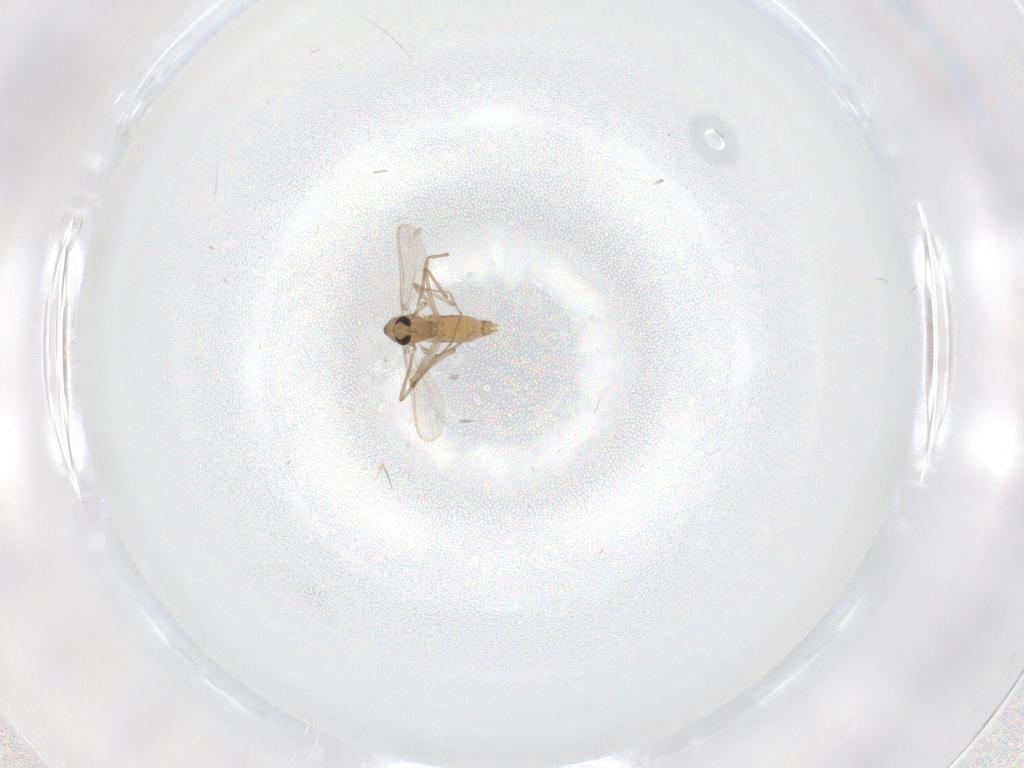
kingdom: Animalia
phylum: Arthropoda
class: Insecta
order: Diptera
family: Chironomidae
